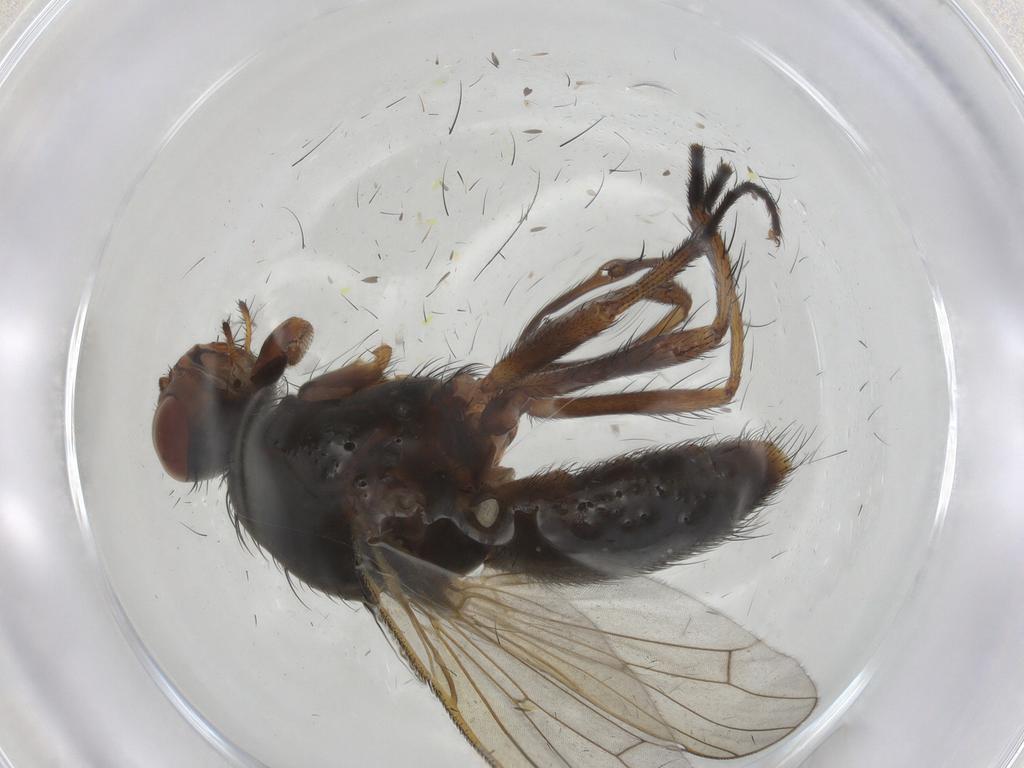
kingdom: Animalia
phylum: Arthropoda
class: Insecta
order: Diptera
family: Anthomyiidae
